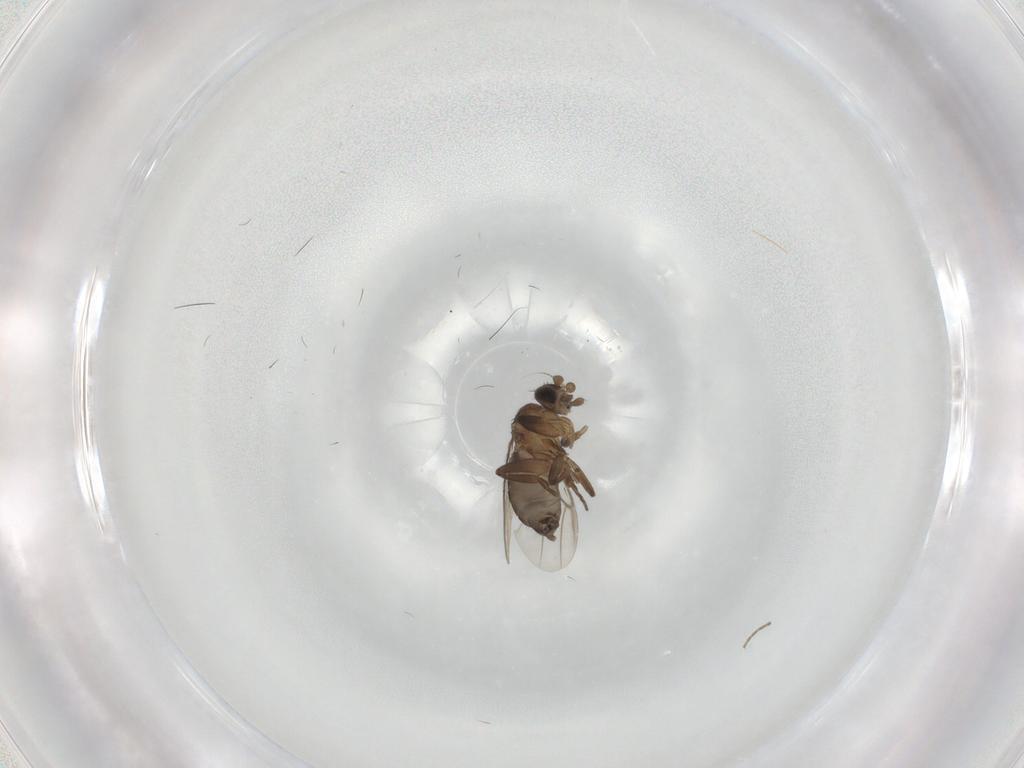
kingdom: Animalia
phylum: Arthropoda
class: Insecta
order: Diptera
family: Phoridae
